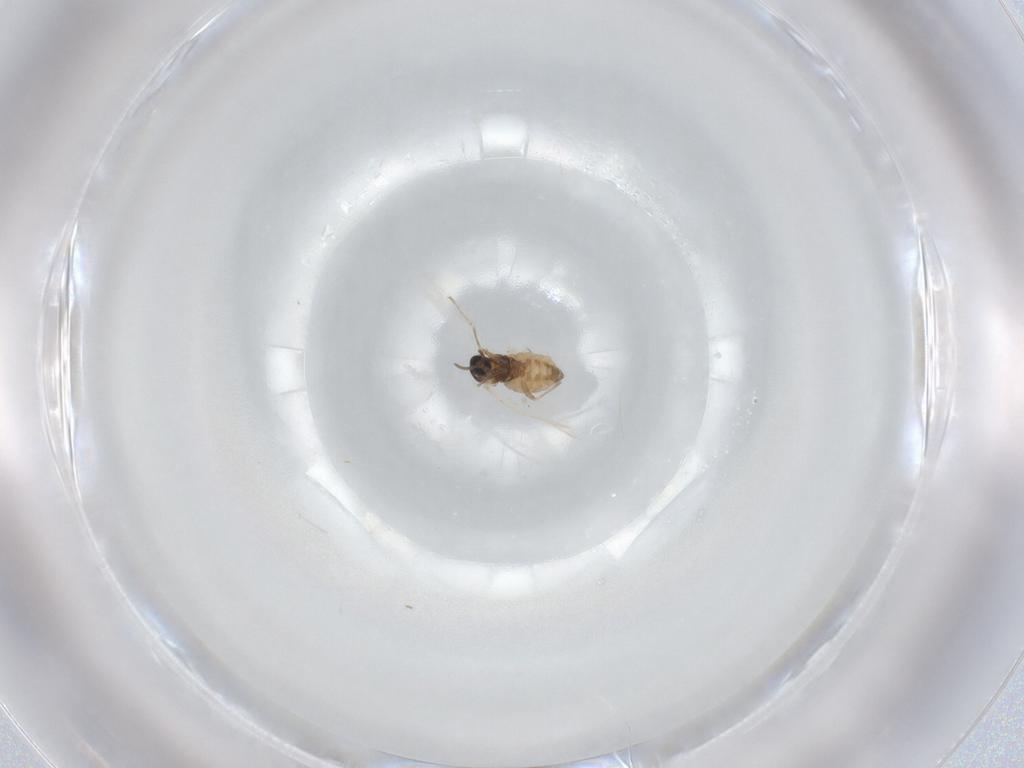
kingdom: Animalia
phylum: Arthropoda
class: Insecta
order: Diptera
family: Cecidomyiidae
